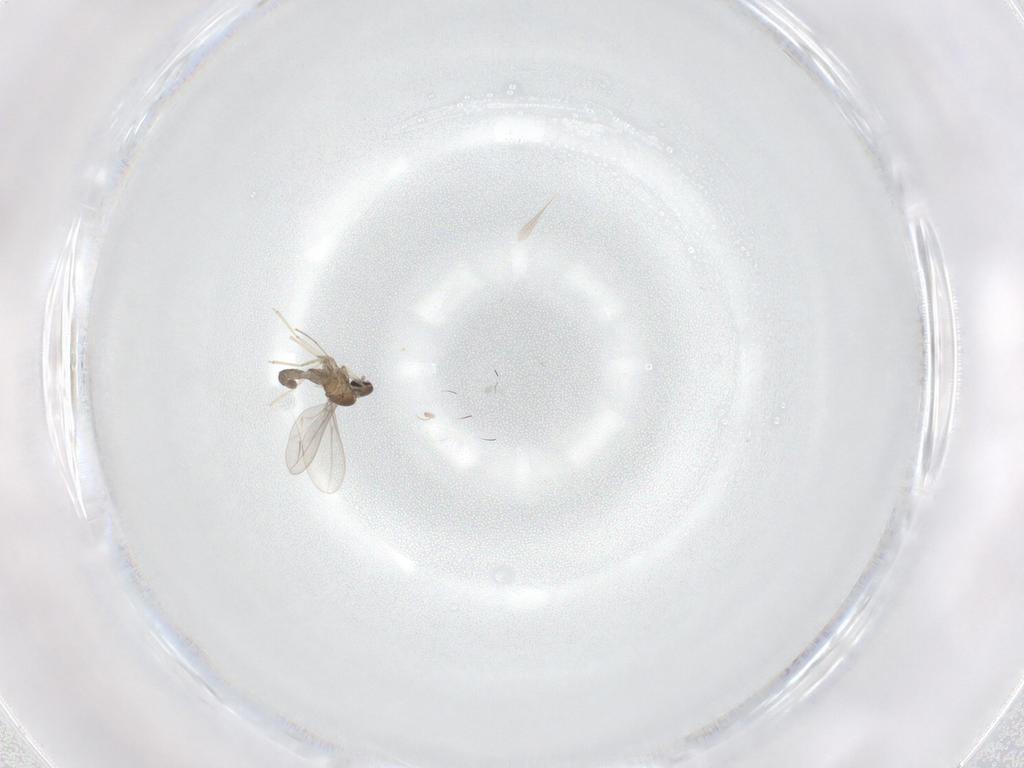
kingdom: Animalia
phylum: Arthropoda
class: Insecta
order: Diptera
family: Cecidomyiidae
